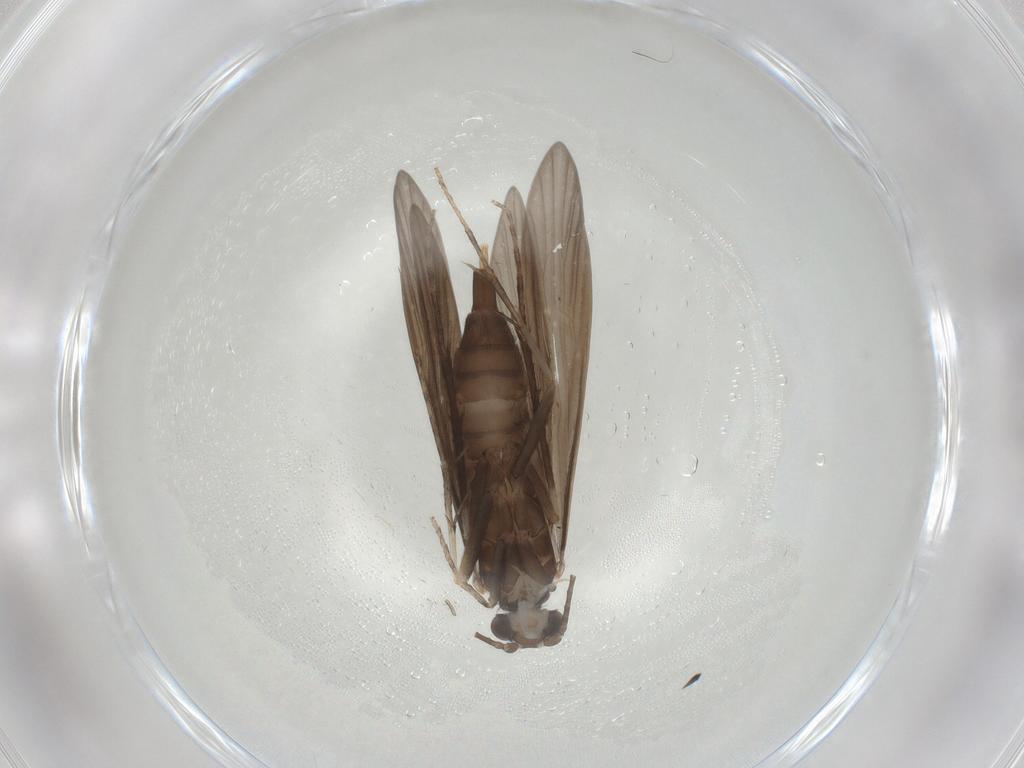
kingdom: Animalia
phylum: Arthropoda
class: Insecta
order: Trichoptera
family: Xiphocentronidae
